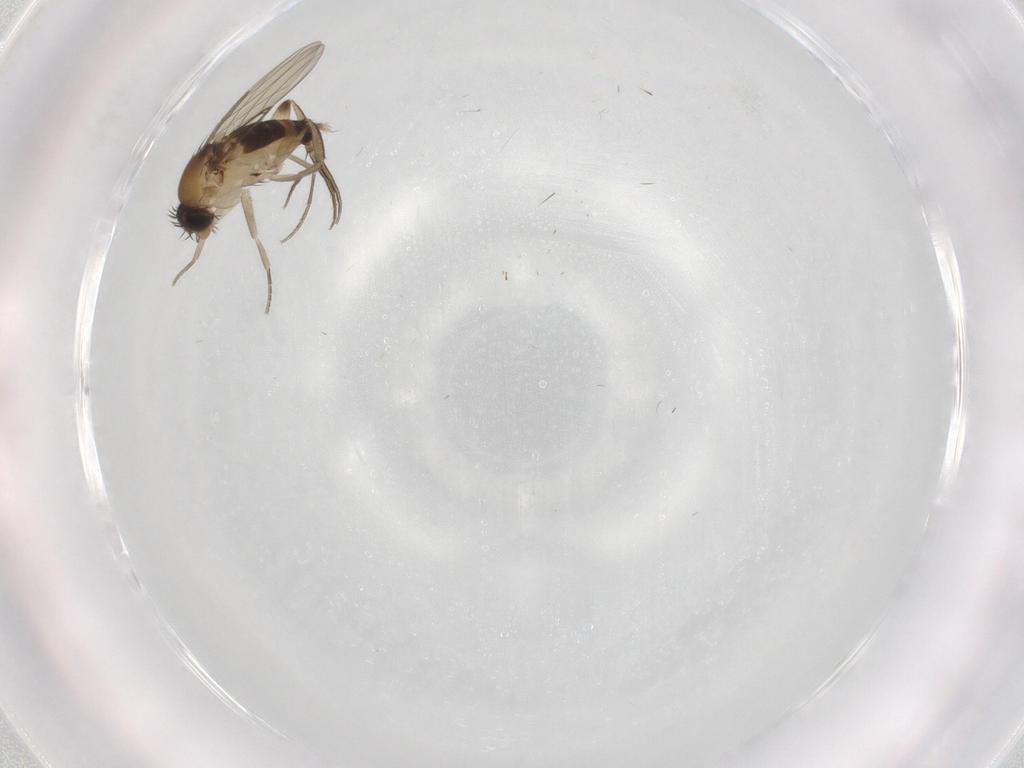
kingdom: Animalia
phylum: Arthropoda
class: Insecta
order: Diptera
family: Phoridae
